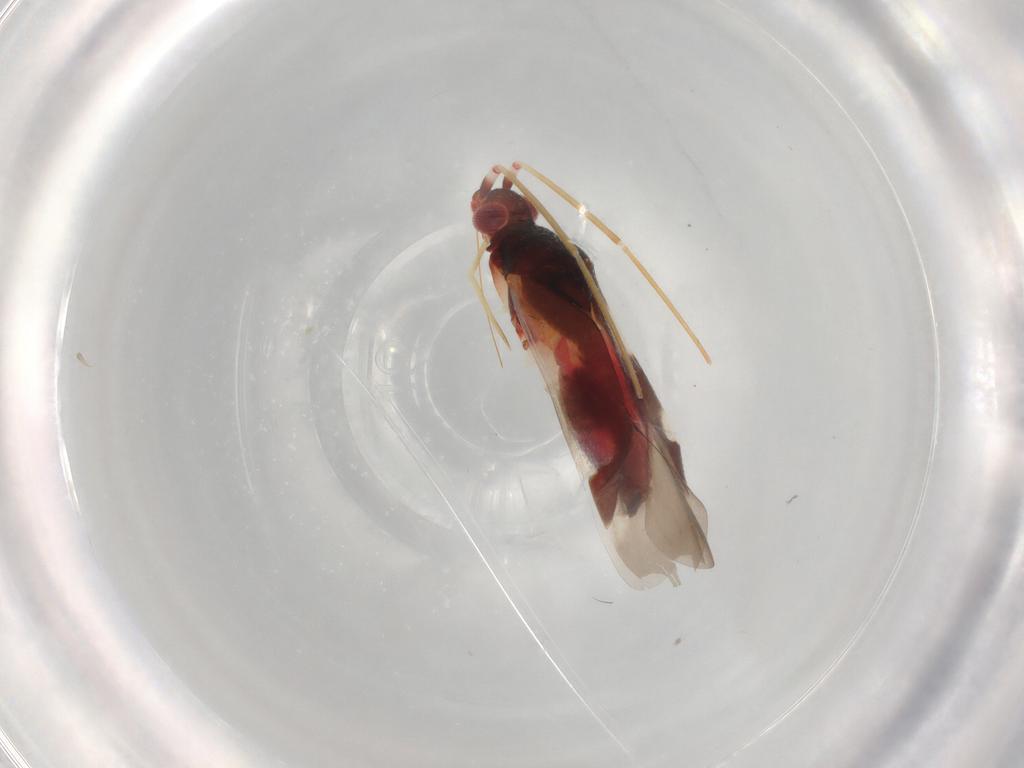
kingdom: Animalia
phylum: Arthropoda
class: Insecta
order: Hemiptera
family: Miridae
